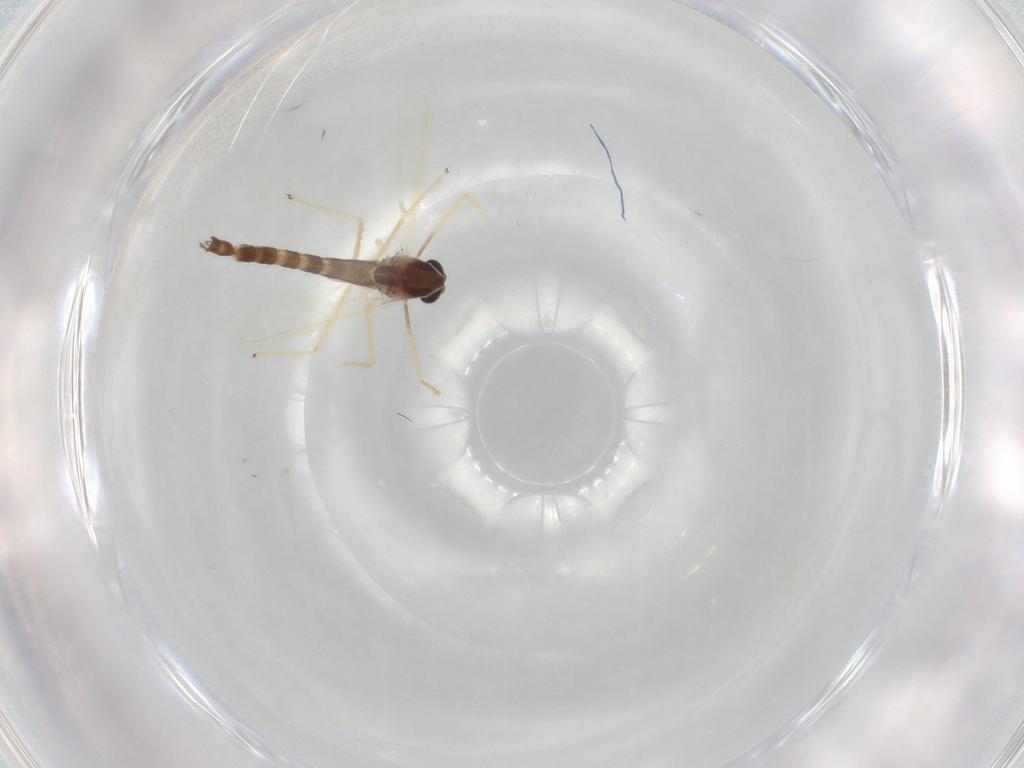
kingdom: Animalia
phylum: Arthropoda
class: Insecta
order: Diptera
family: Chironomidae
